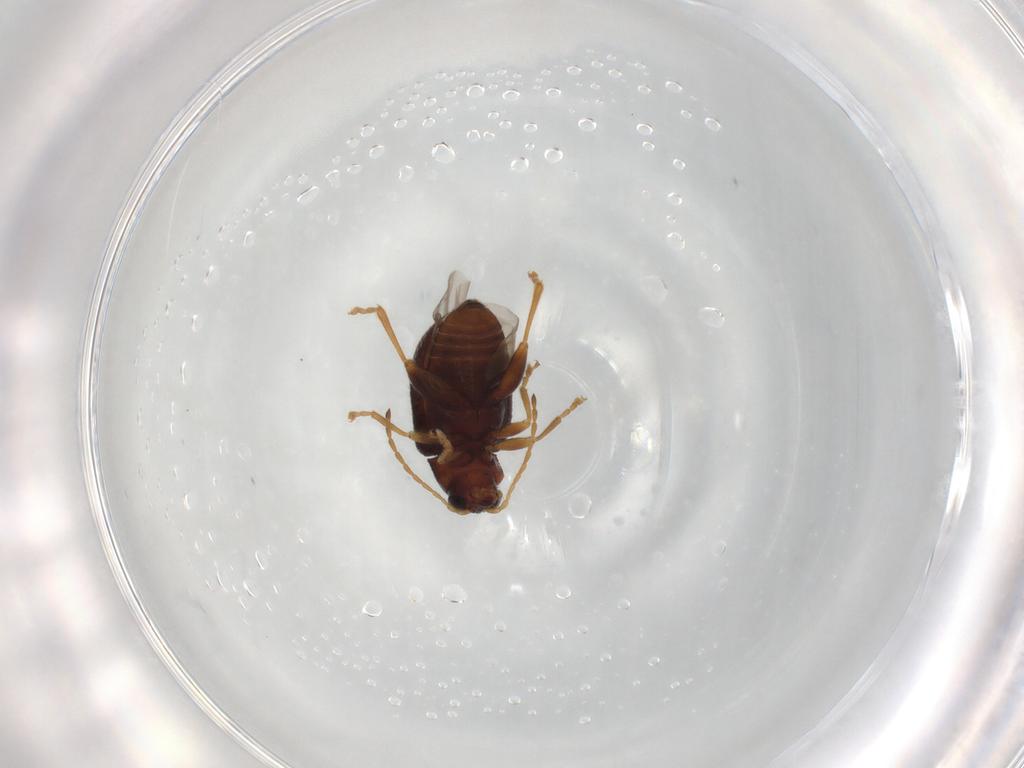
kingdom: Animalia
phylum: Arthropoda
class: Insecta
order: Coleoptera
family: Chrysomelidae
